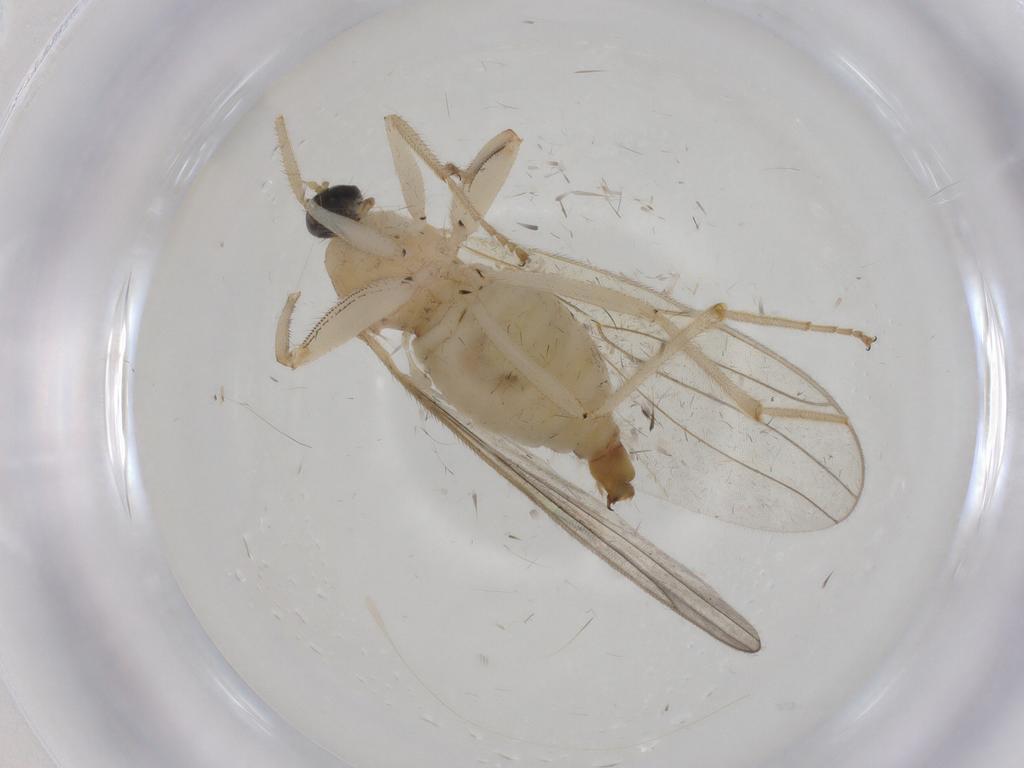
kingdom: Animalia
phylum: Arthropoda
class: Insecta
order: Diptera
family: Hybotidae
